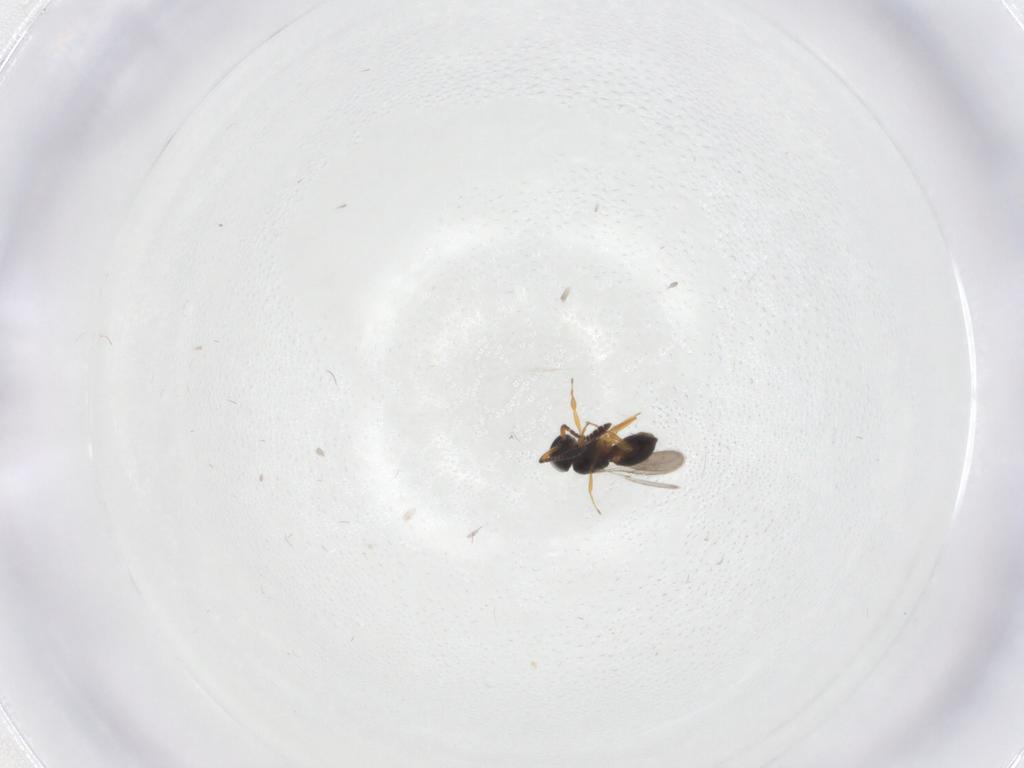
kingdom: Animalia
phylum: Arthropoda
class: Insecta
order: Hymenoptera
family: Scelionidae
